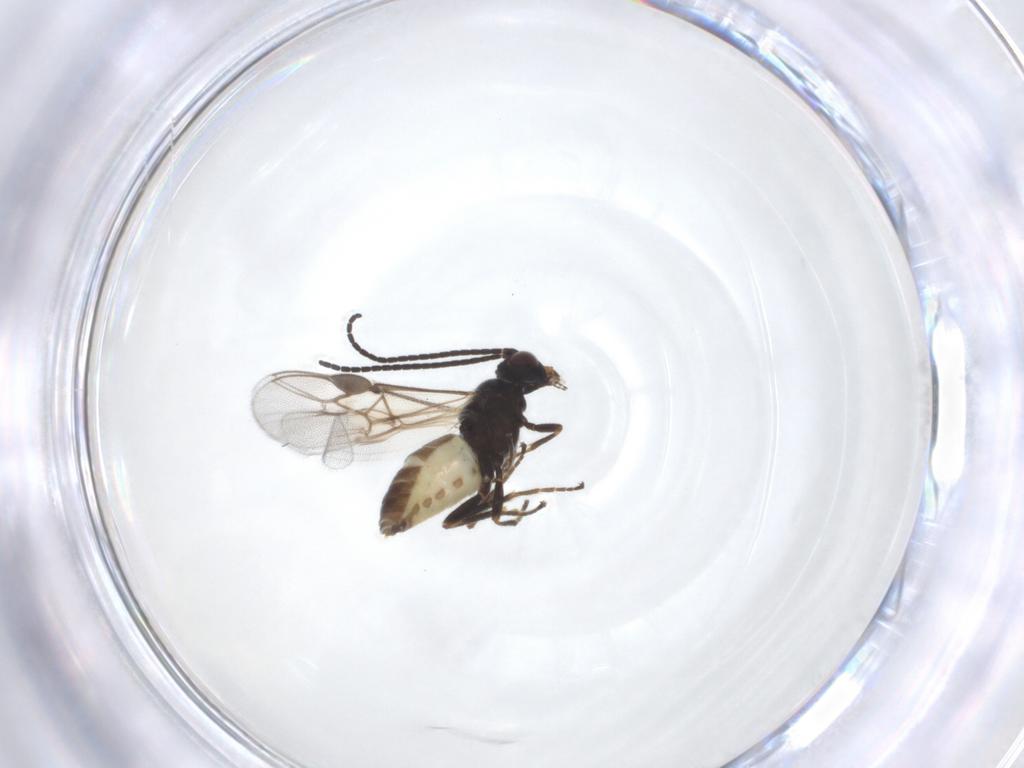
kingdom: Animalia
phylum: Arthropoda
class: Insecta
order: Hymenoptera
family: Braconidae
